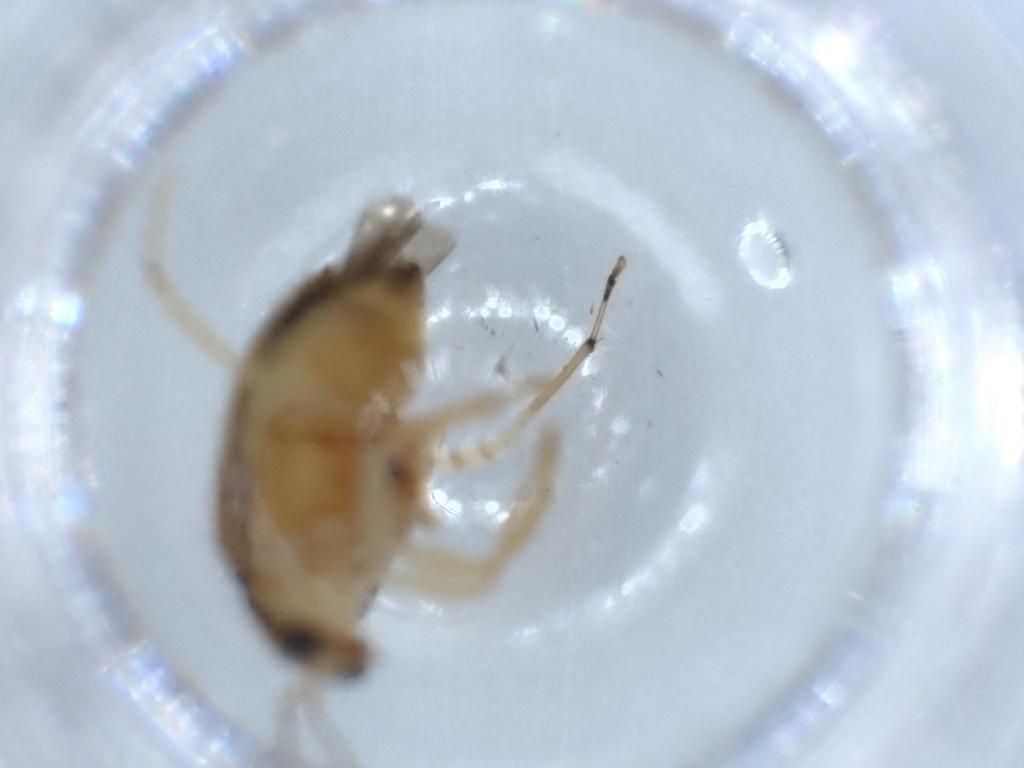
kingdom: Animalia
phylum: Arthropoda
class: Insecta
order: Coleoptera
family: Chrysomelidae
